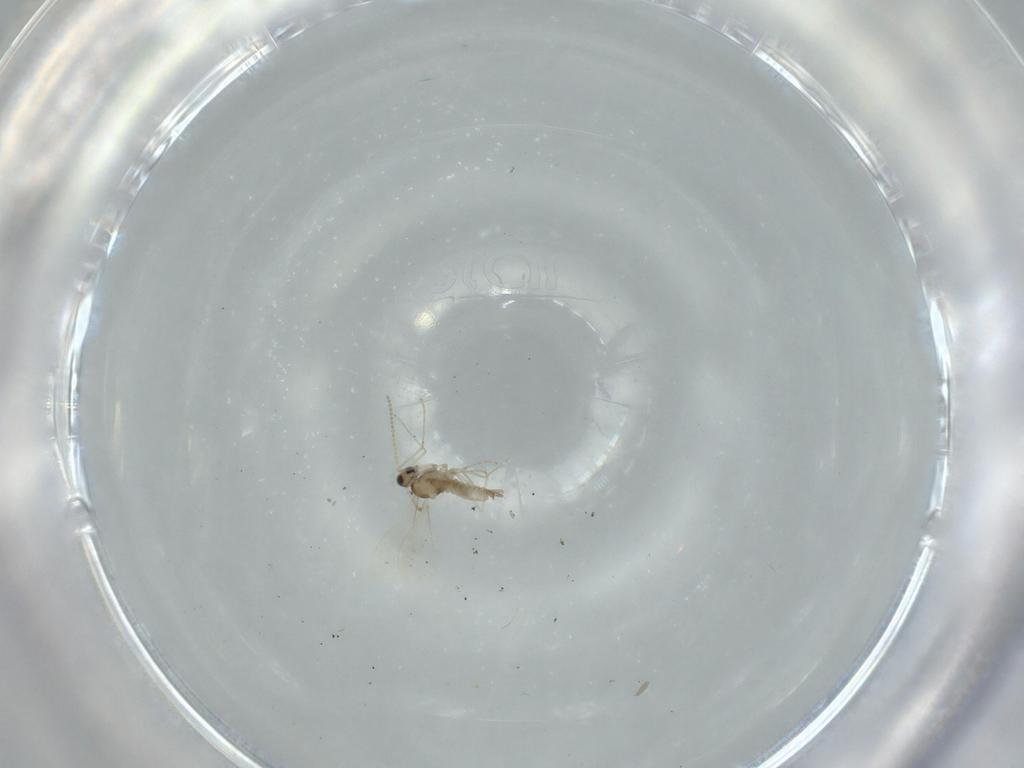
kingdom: Animalia
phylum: Arthropoda
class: Insecta
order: Diptera
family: Cecidomyiidae
